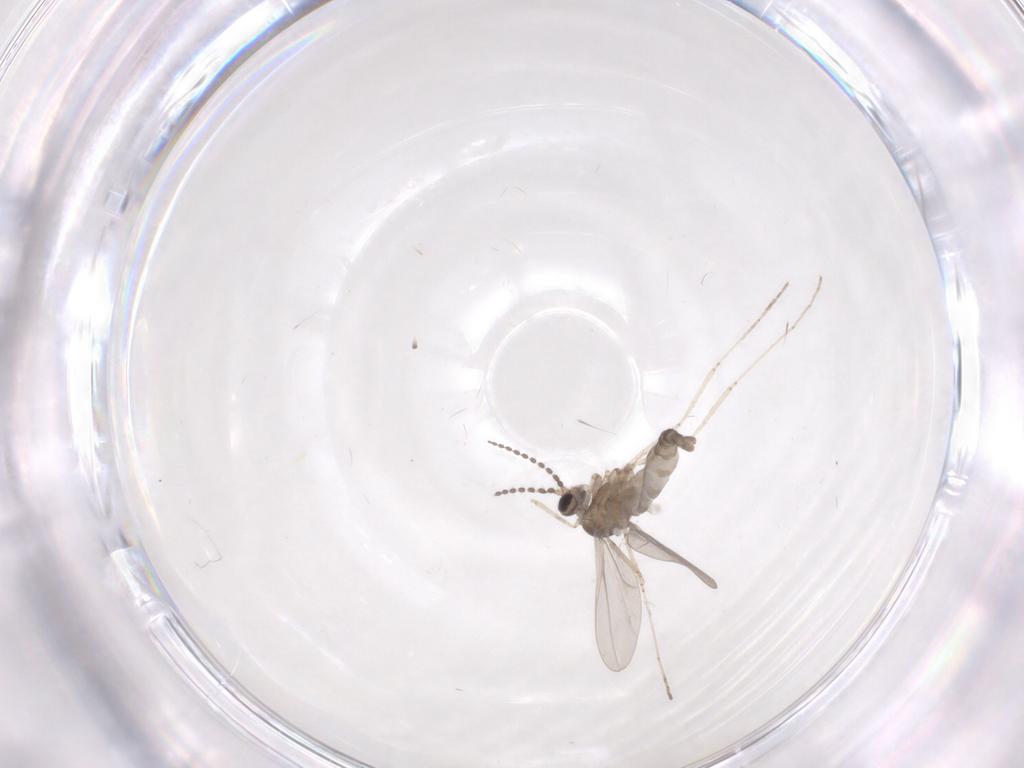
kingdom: Animalia
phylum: Arthropoda
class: Insecta
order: Diptera
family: Cecidomyiidae
